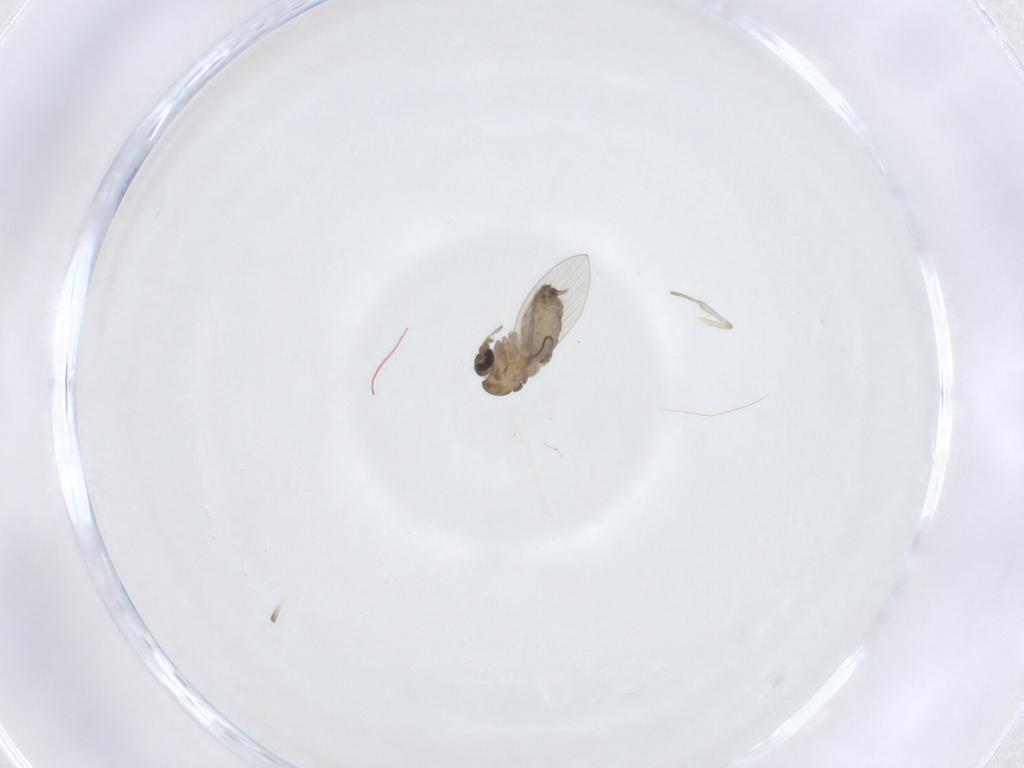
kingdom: Animalia
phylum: Arthropoda
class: Insecta
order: Diptera
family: Psychodidae
